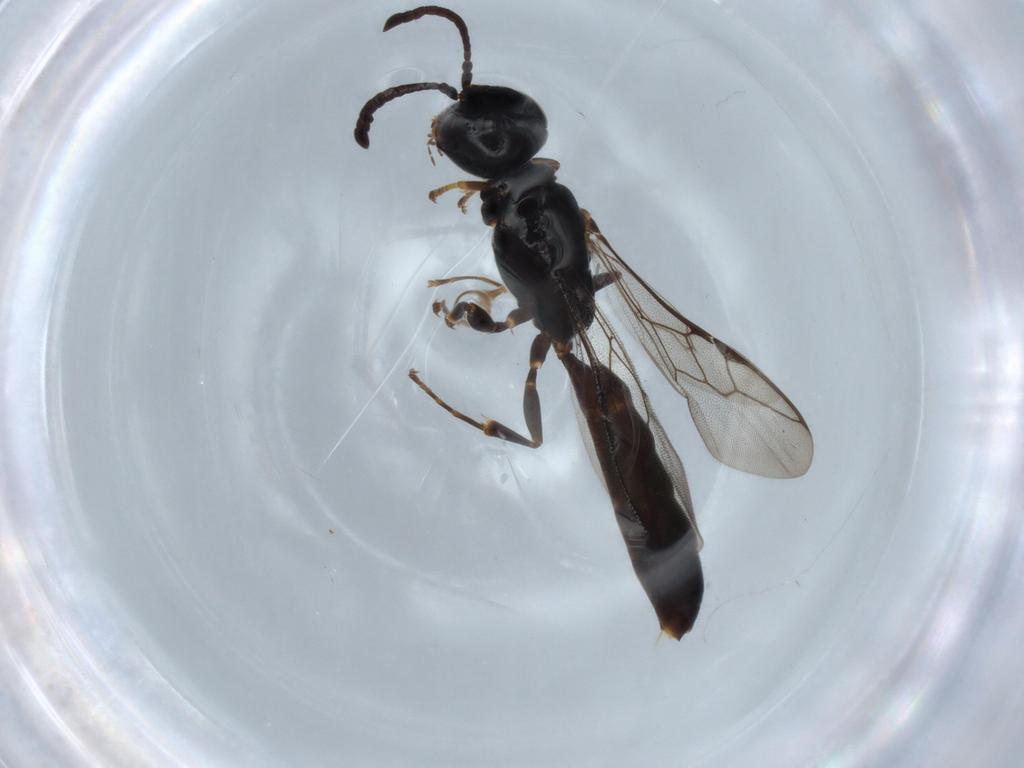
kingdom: Animalia
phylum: Arthropoda
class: Insecta
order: Hymenoptera
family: Crabronidae
